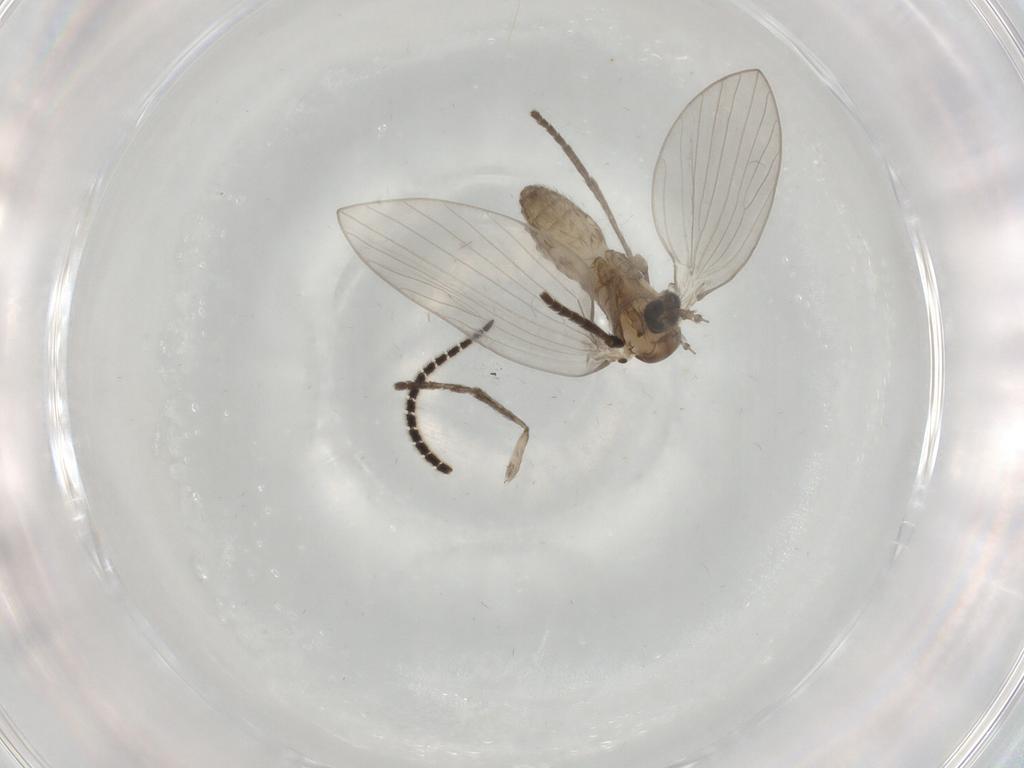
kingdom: Animalia
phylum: Arthropoda
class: Insecta
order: Diptera
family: Psychodidae
